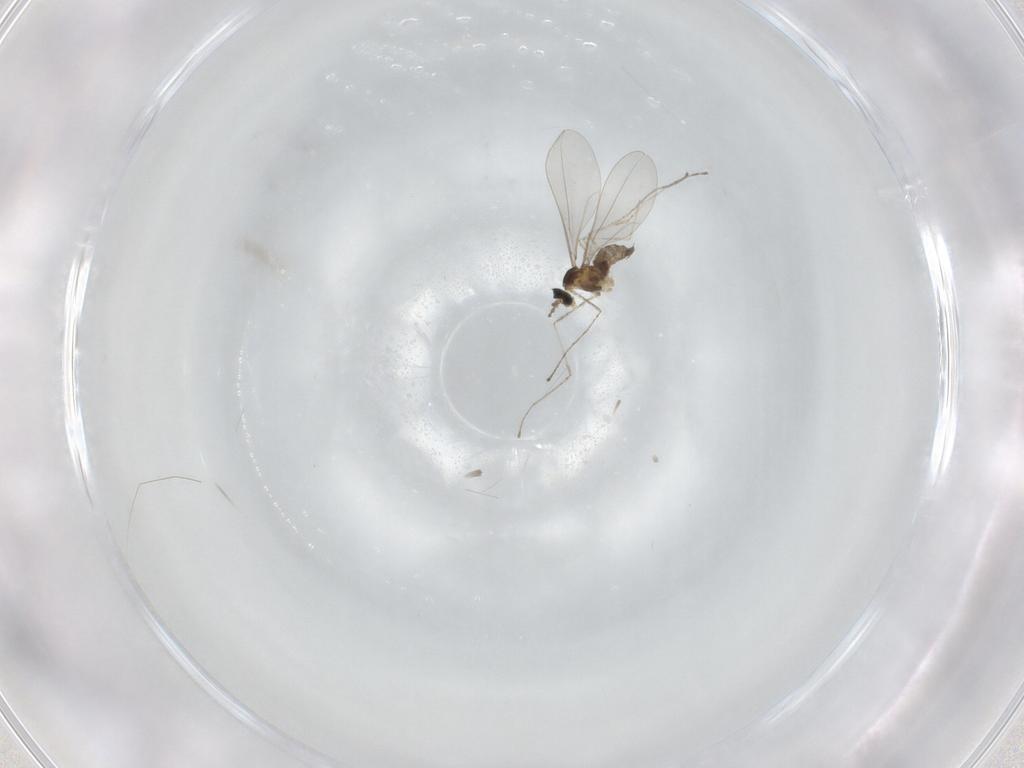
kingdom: Animalia
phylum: Arthropoda
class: Insecta
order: Diptera
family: Cecidomyiidae
